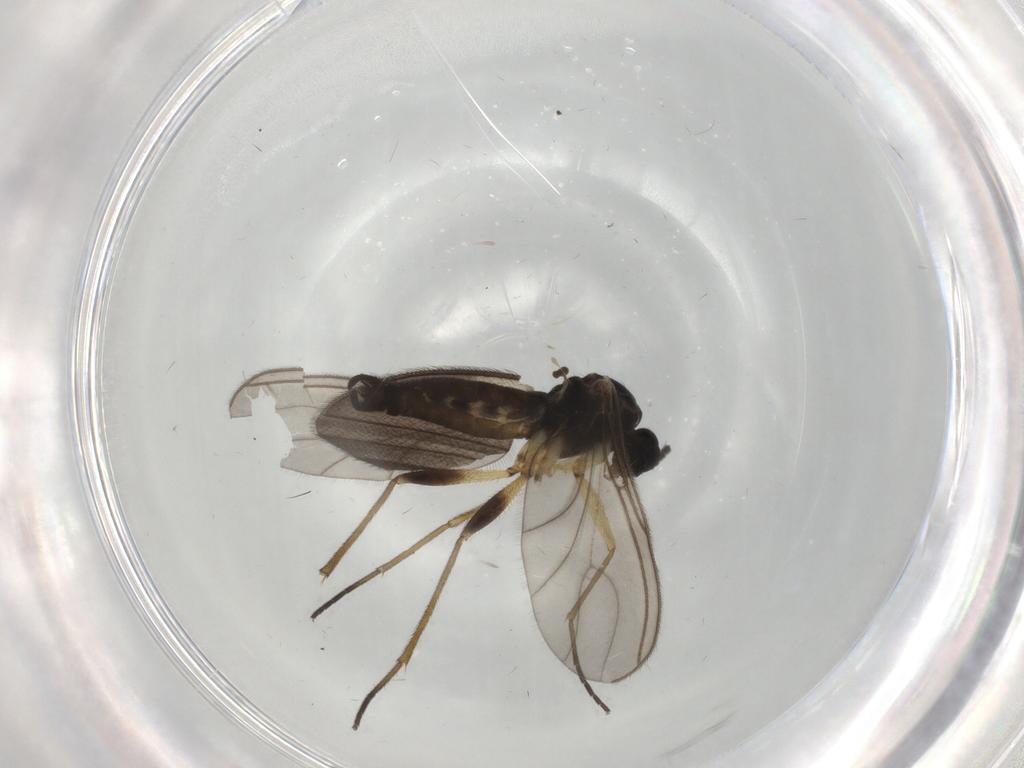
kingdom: Animalia
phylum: Arthropoda
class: Insecta
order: Diptera
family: Sciaridae
